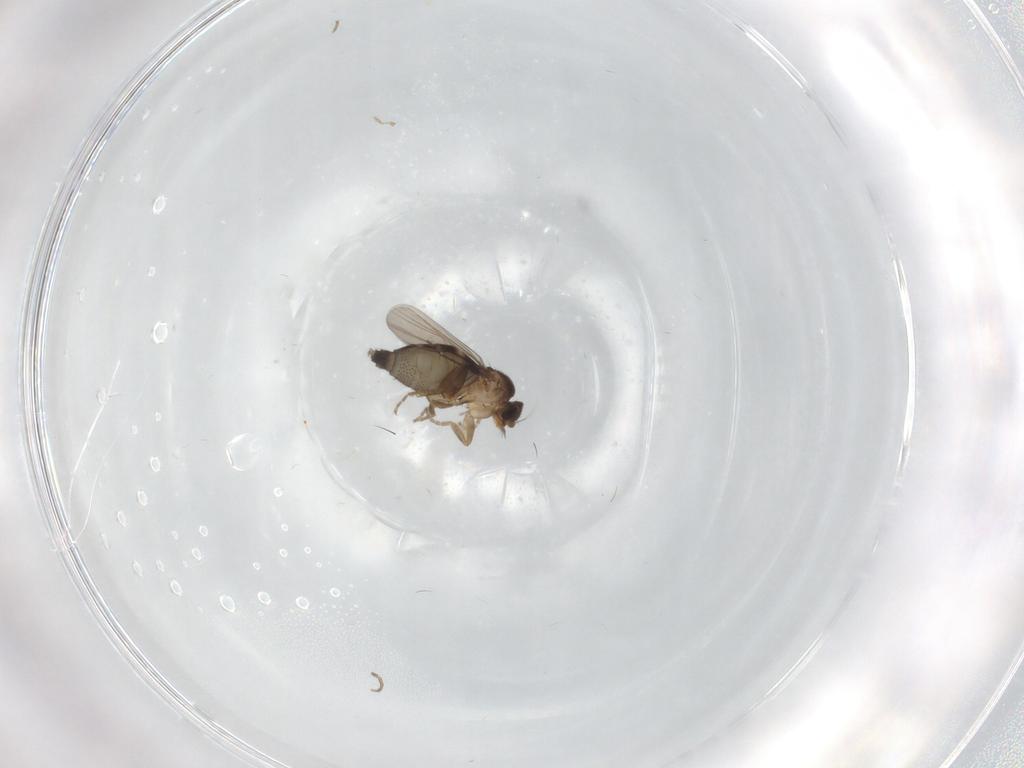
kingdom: Animalia
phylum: Arthropoda
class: Insecta
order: Diptera
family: Phoridae
